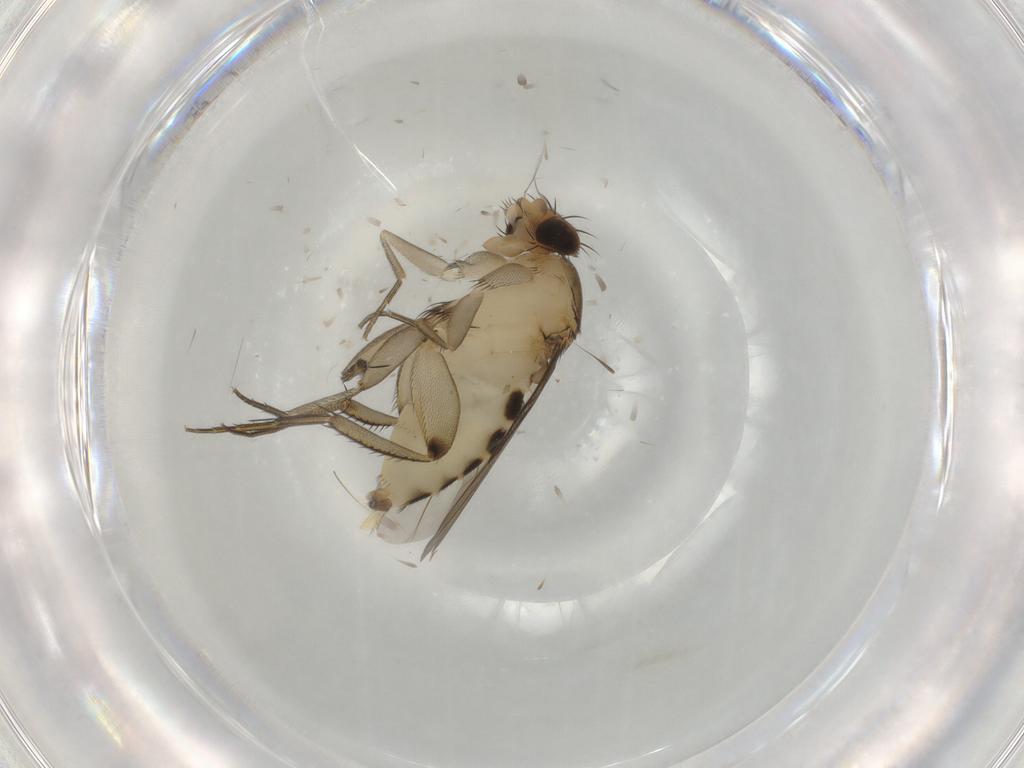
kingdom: Animalia
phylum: Arthropoda
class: Insecta
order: Diptera
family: Phoridae
